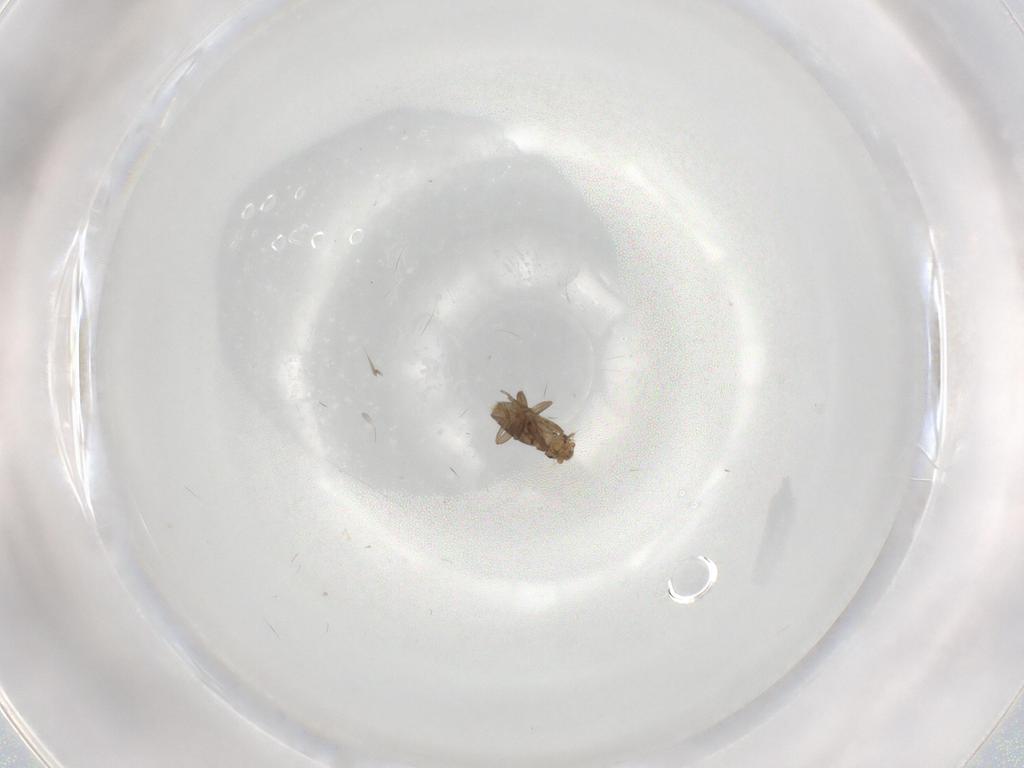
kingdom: Animalia
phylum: Arthropoda
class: Insecta
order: Diptera
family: Phoridae
